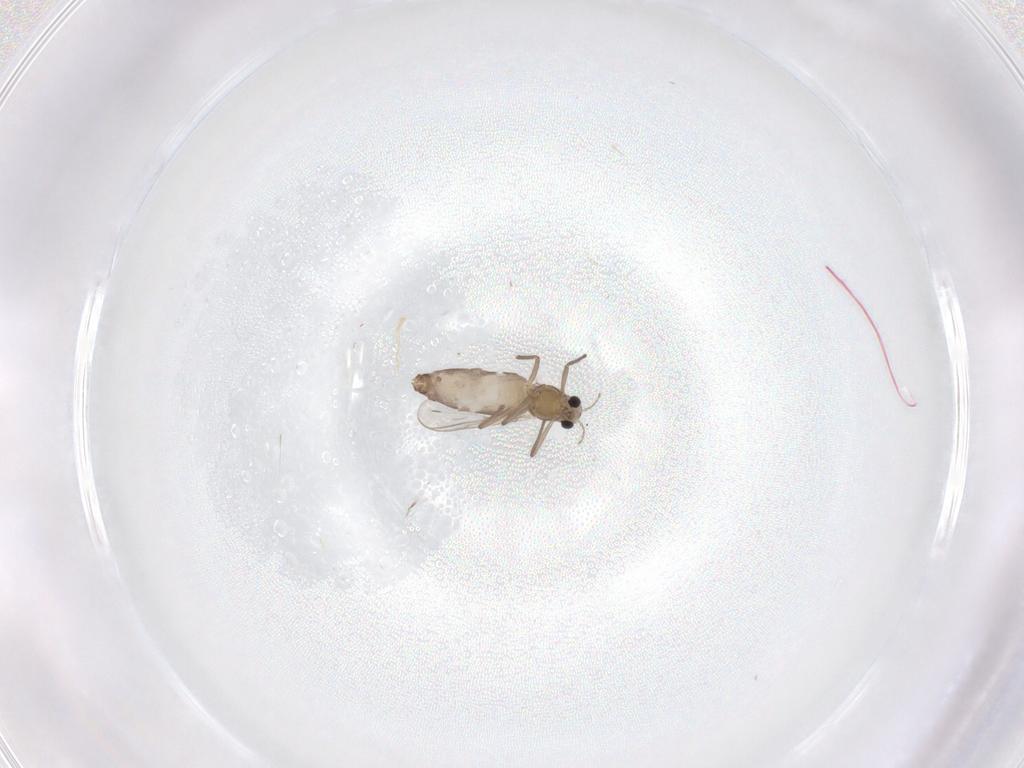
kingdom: Animalia
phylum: Arthropoda
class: Insecta
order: Diptera
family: Chironomidae
